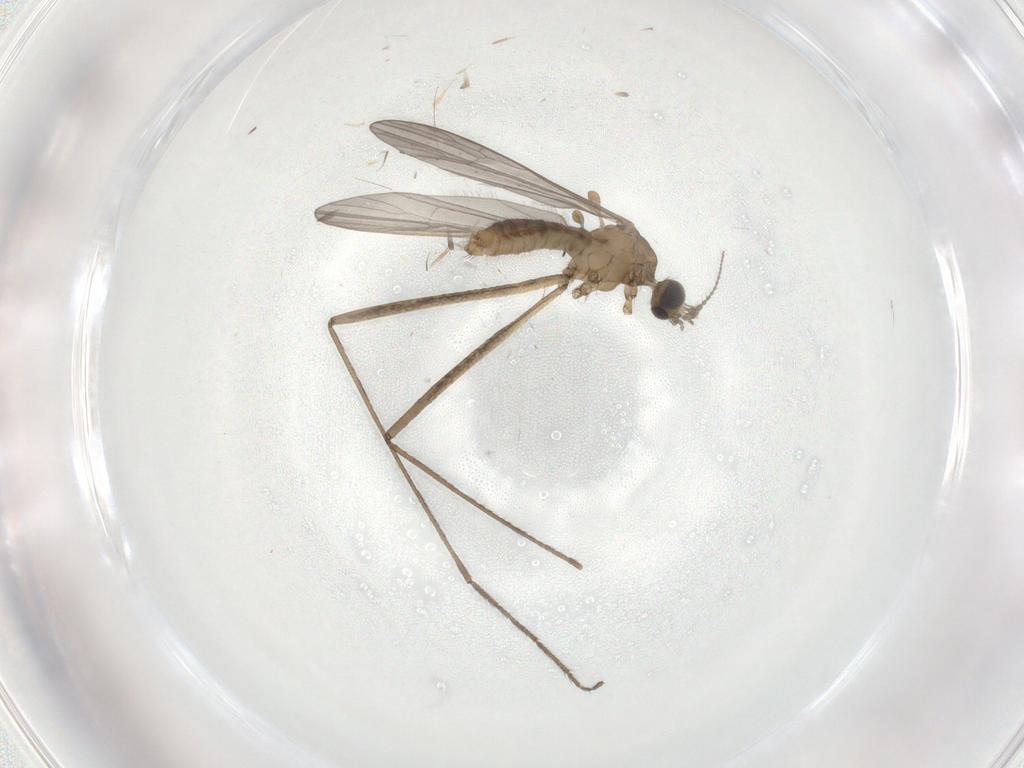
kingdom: Animalia
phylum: Arthropoda
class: Insecta
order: Diptera
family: Limoniidae
